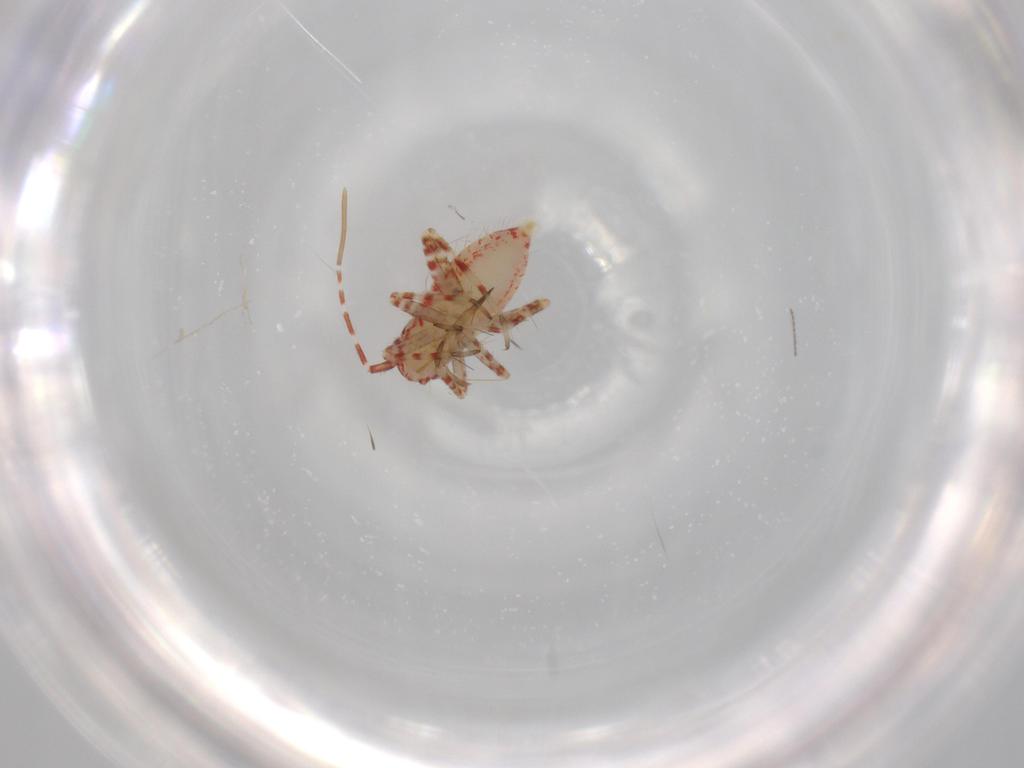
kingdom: Animalia
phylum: Arthropoda
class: Insecta
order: Hemiptera
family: Miridae
